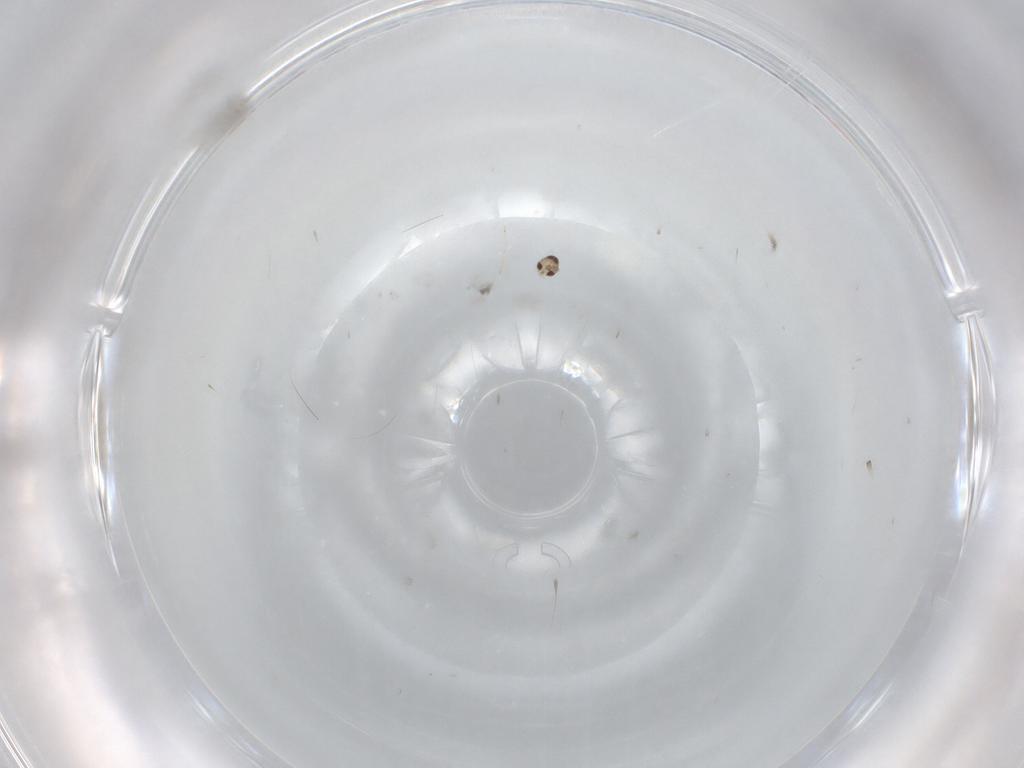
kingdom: Animalia
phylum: Arthropoda
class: Insecta
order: Diptera
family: Cecidomyiidae
